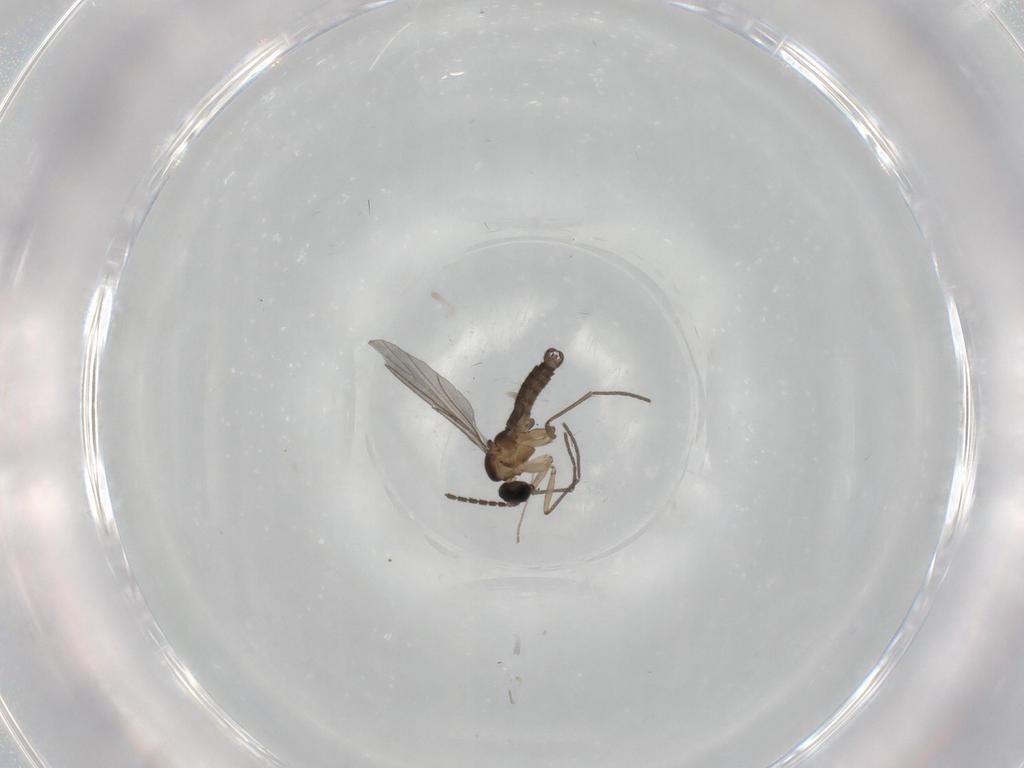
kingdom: Animalia
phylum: Arthropoda
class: Insecta
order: Diptera
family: Sciaridae
